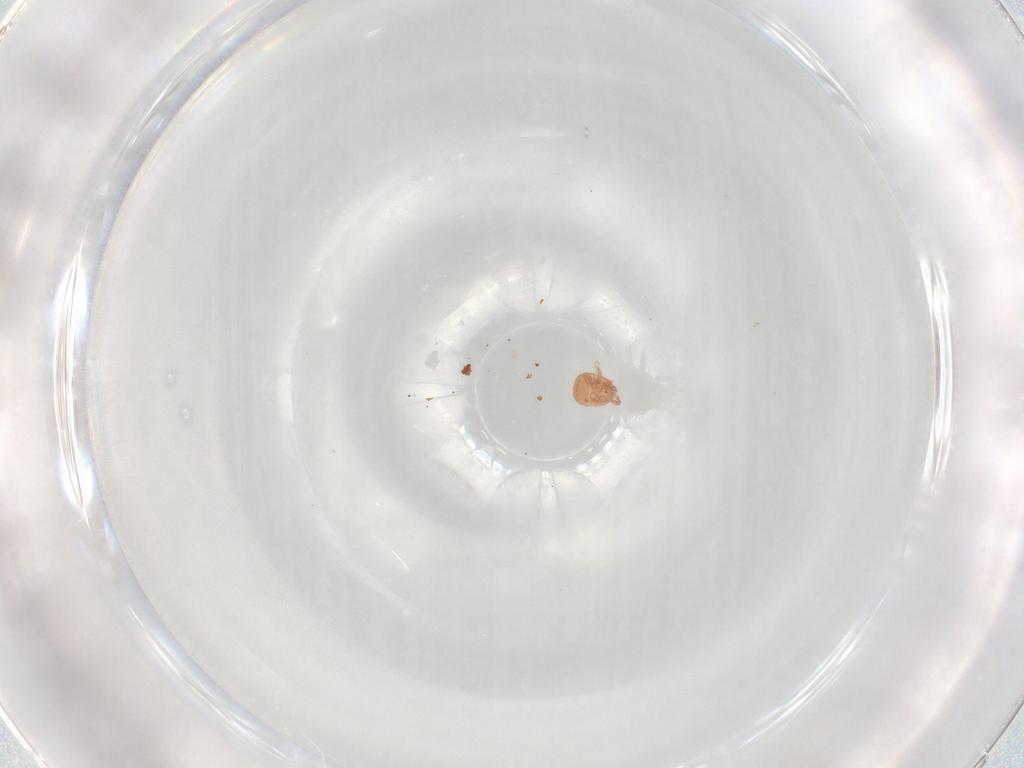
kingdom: Animalia
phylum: Arthropoda
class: Arachnida
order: Mesostigmata
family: Zerconidae
